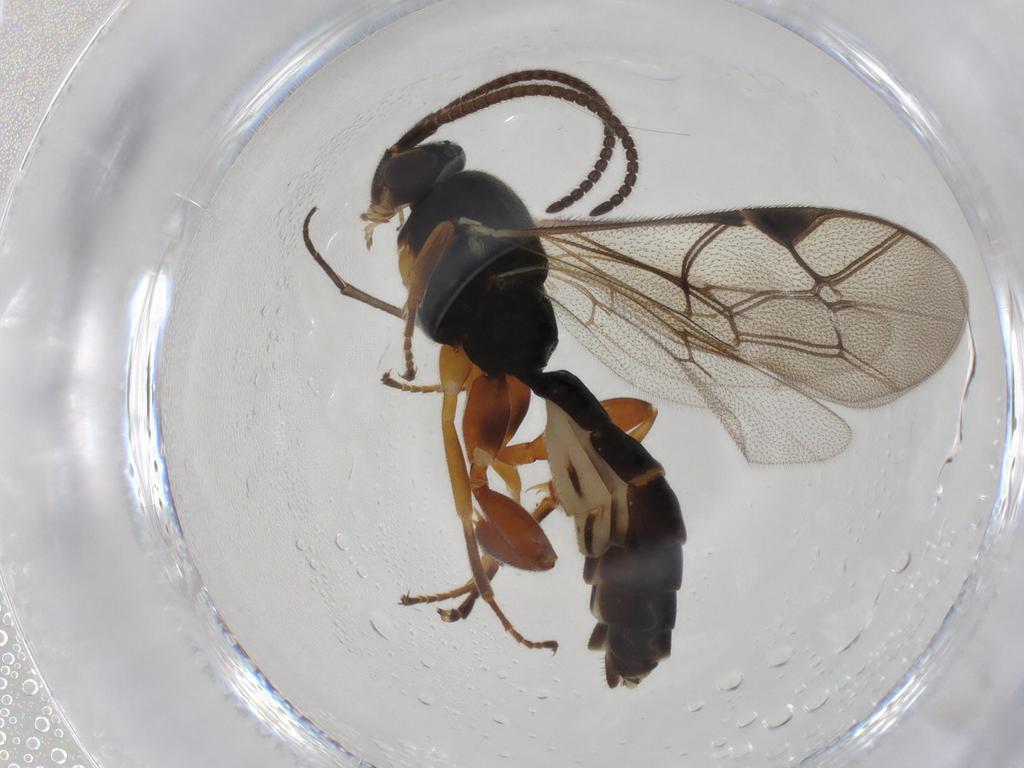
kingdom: Animalia
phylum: Arthropoda
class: Insecta
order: Hymenoptera
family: Ichneumonidae
